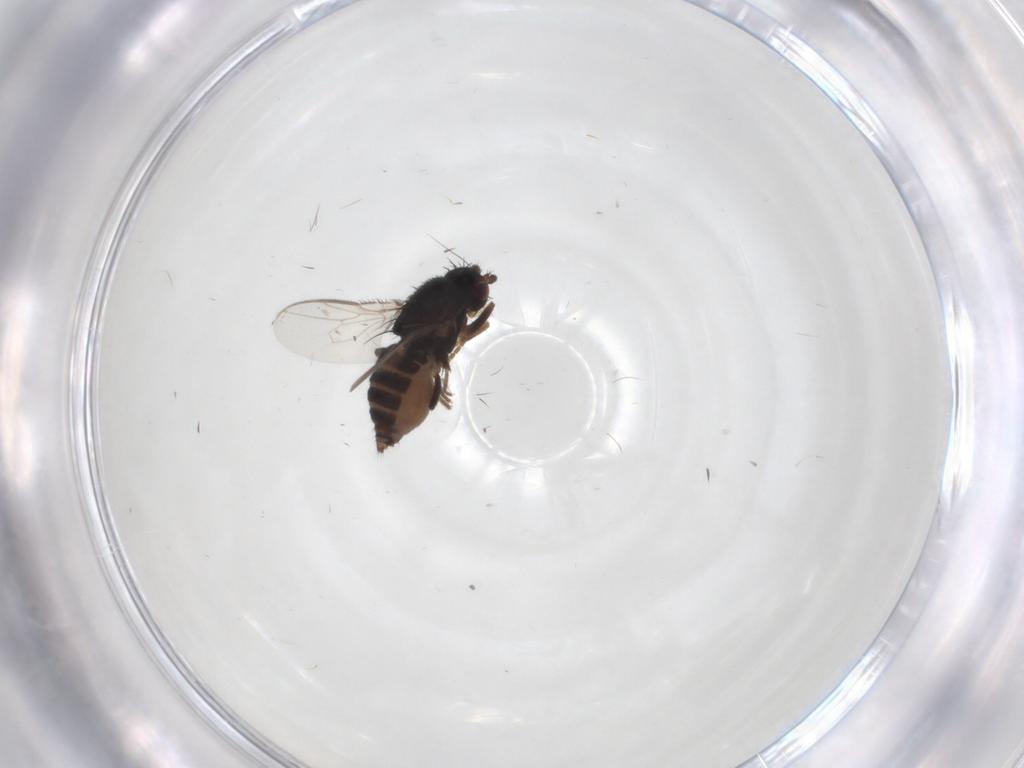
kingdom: Animalia
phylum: Arthropoda
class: Insecta
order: Diptera
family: Sphaeroceridae
